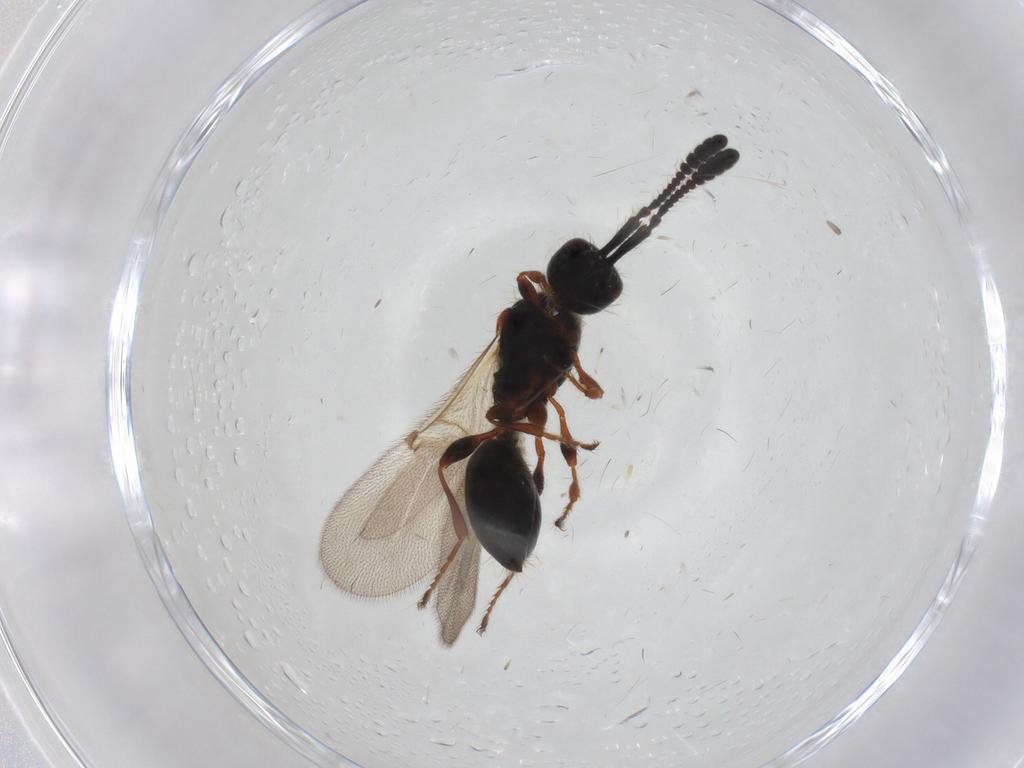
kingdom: Animalia
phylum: Arthropoda
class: Insecta
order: Hymenoptera
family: Diapriidae
